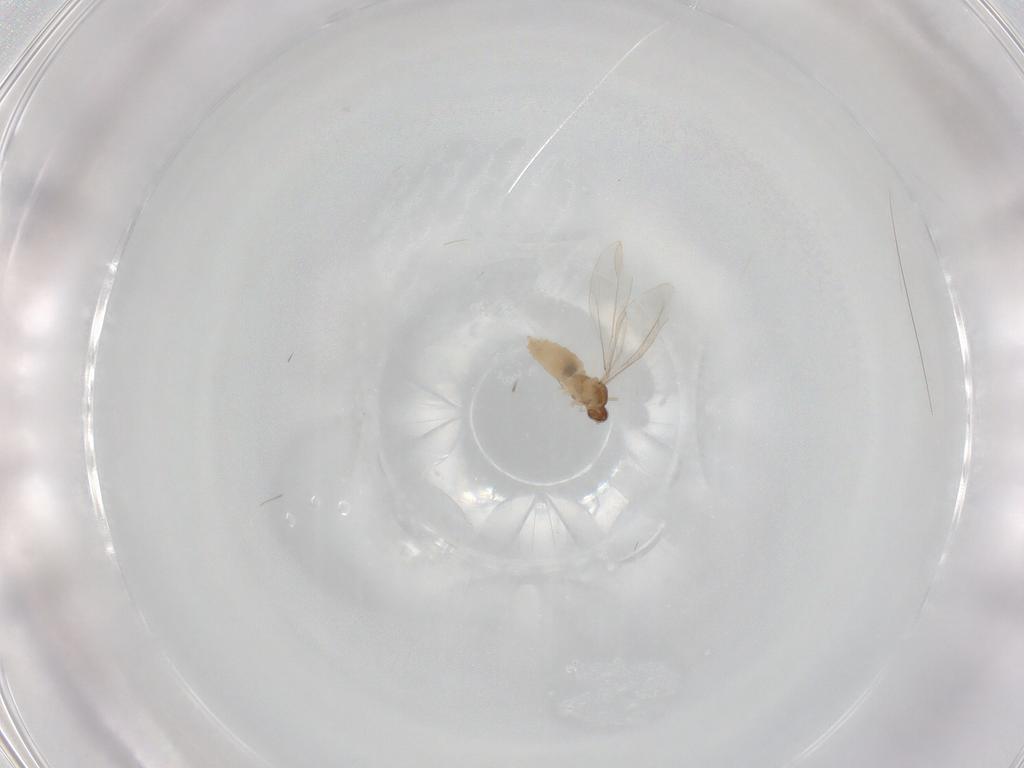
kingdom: Animalia
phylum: Arthropoda
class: Insecta
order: Diptera
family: Cecidomyiidae
